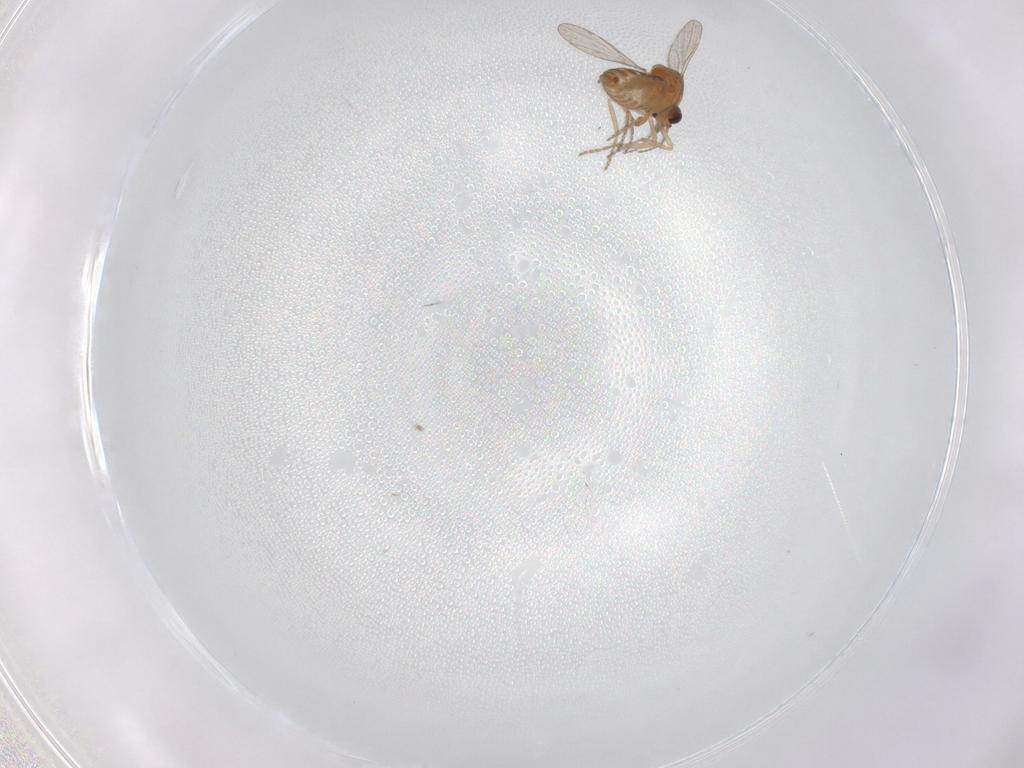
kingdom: Animalia
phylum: Arthropoda
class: Insecta
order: Diptera
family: Ceratopogonidae
